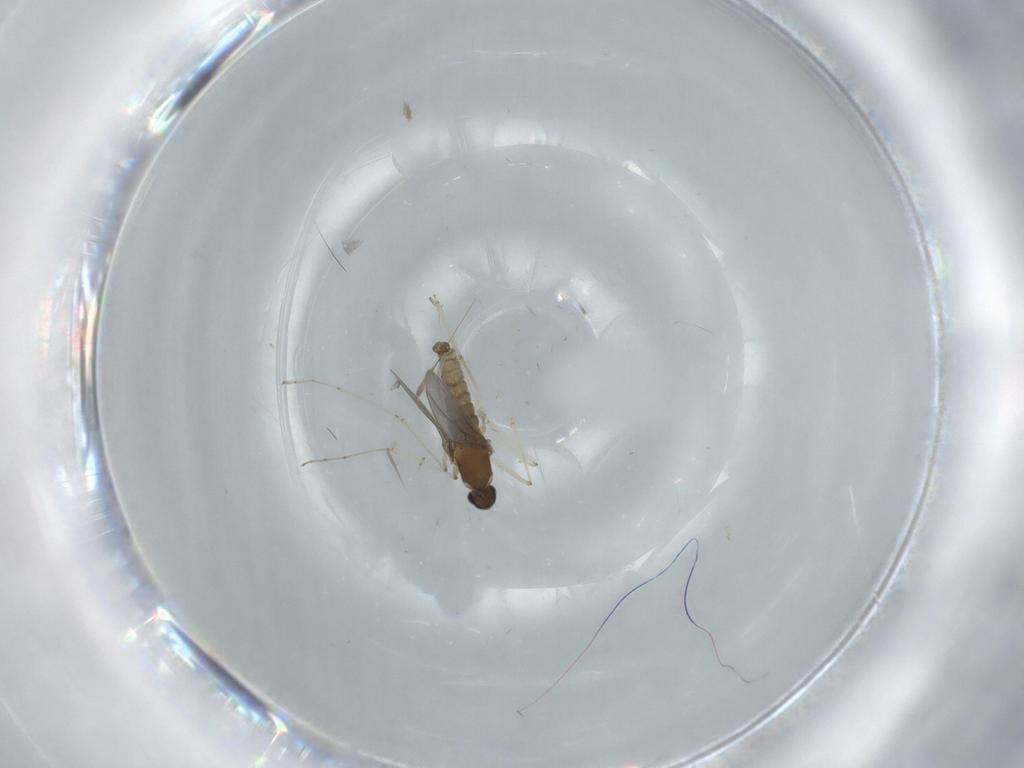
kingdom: Animalia
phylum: Arthropoda
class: Insecta
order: Diptera
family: Cecidomyiidae
